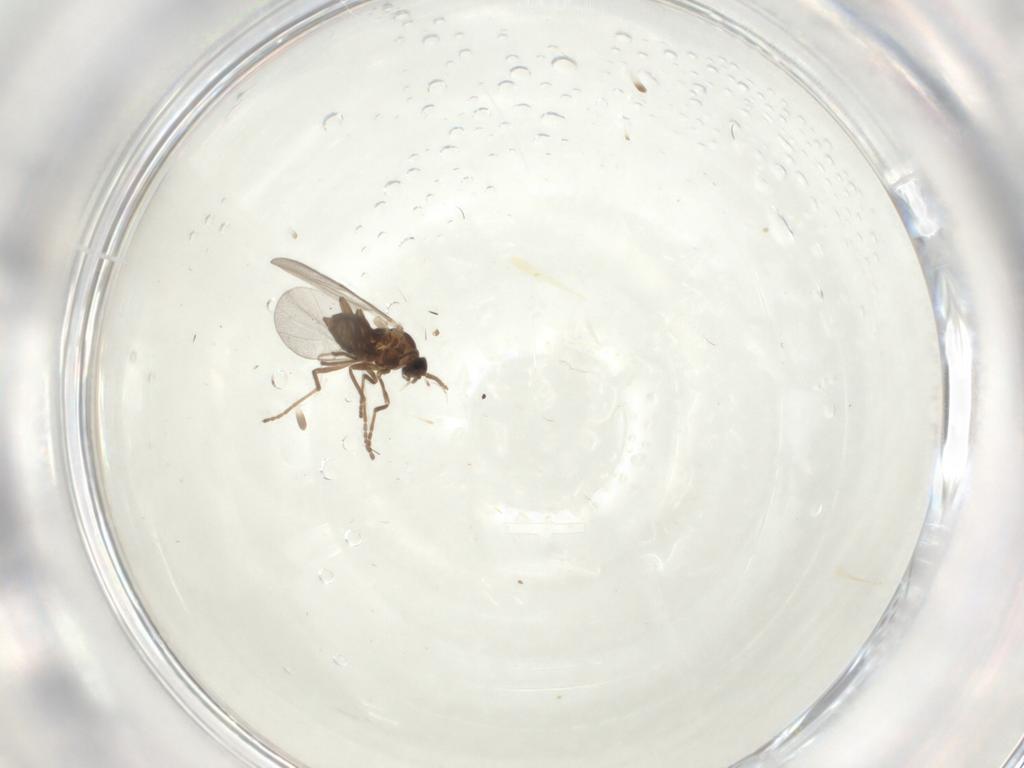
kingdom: Animalia
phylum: Arthropoda
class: Insecta
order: Diptera
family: Cecidomyiidae
